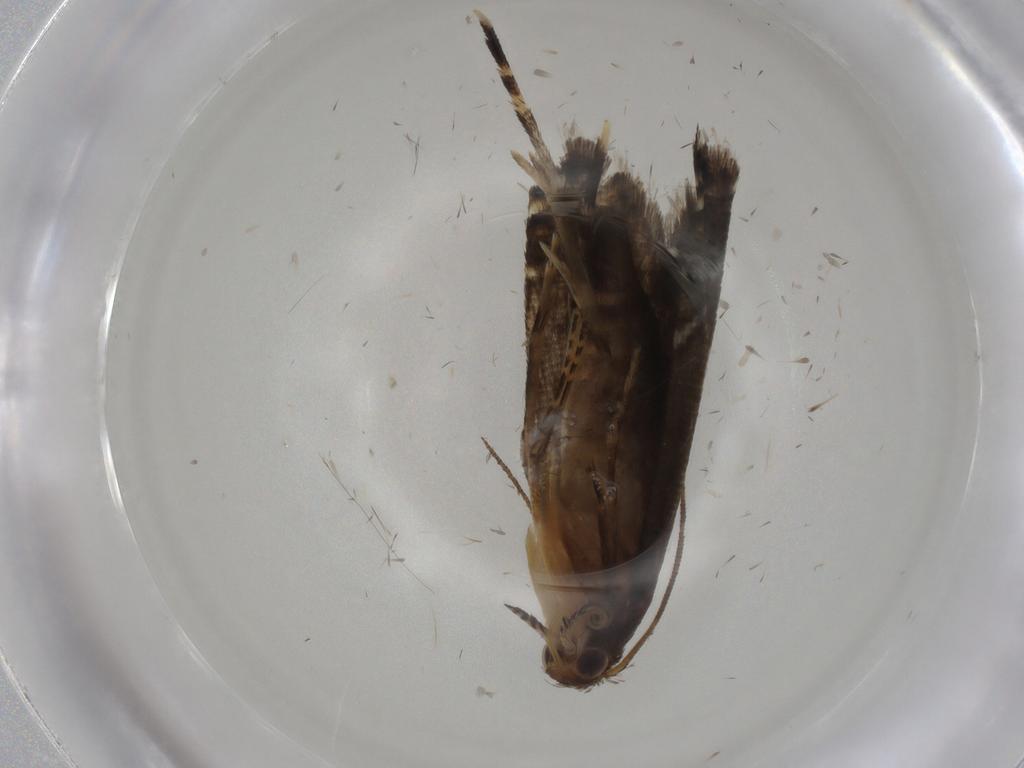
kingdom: Animalia
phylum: Arthropoda
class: Insecta
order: Lepidoptera
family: Glyphipterigidae
